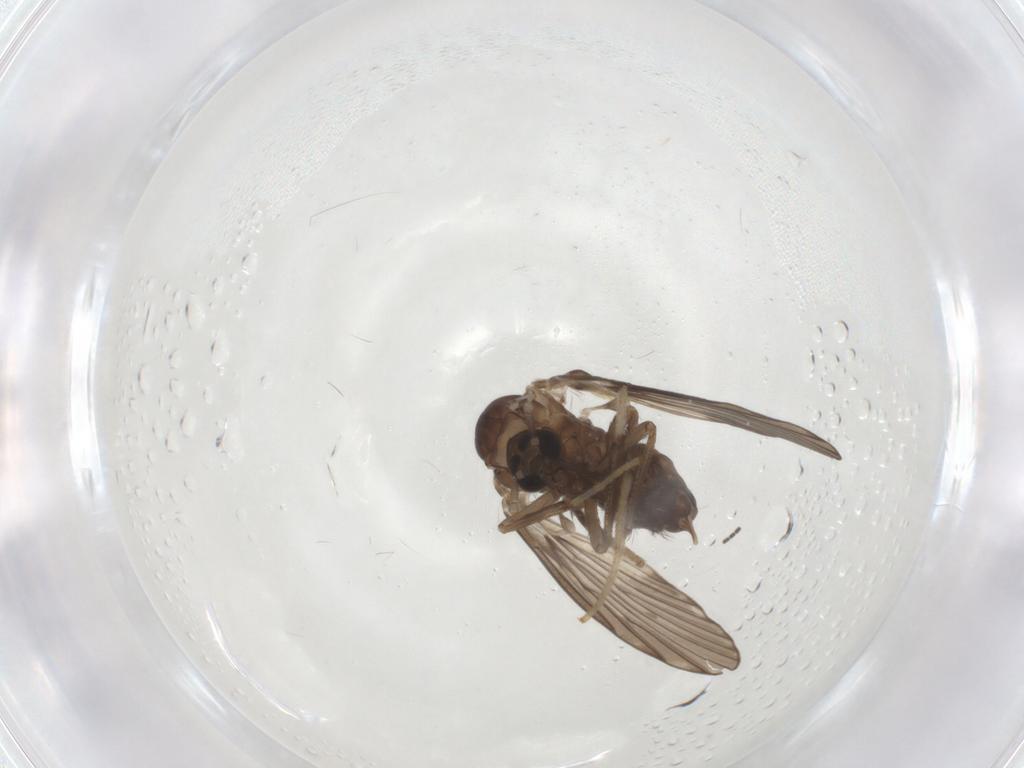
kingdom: Animalia
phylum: Arthropoda
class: Insecta
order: Diptera
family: Psychodidae
